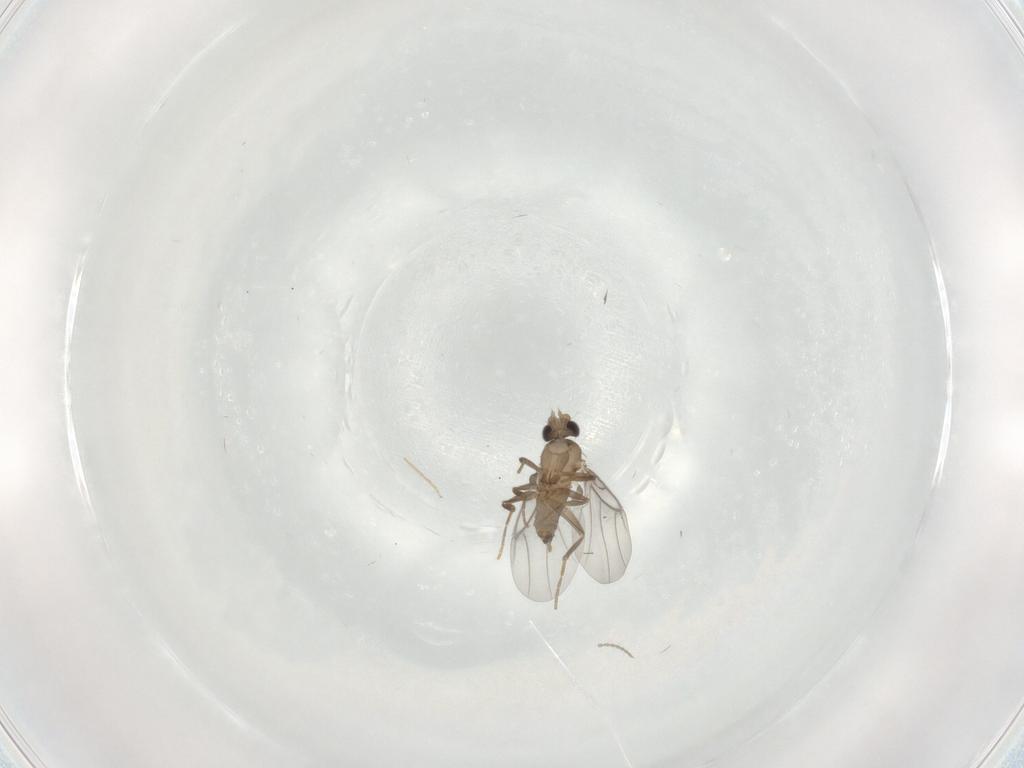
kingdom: Animalia
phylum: Arthropoda
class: Insecta
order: Diptera
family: Chironomidae
